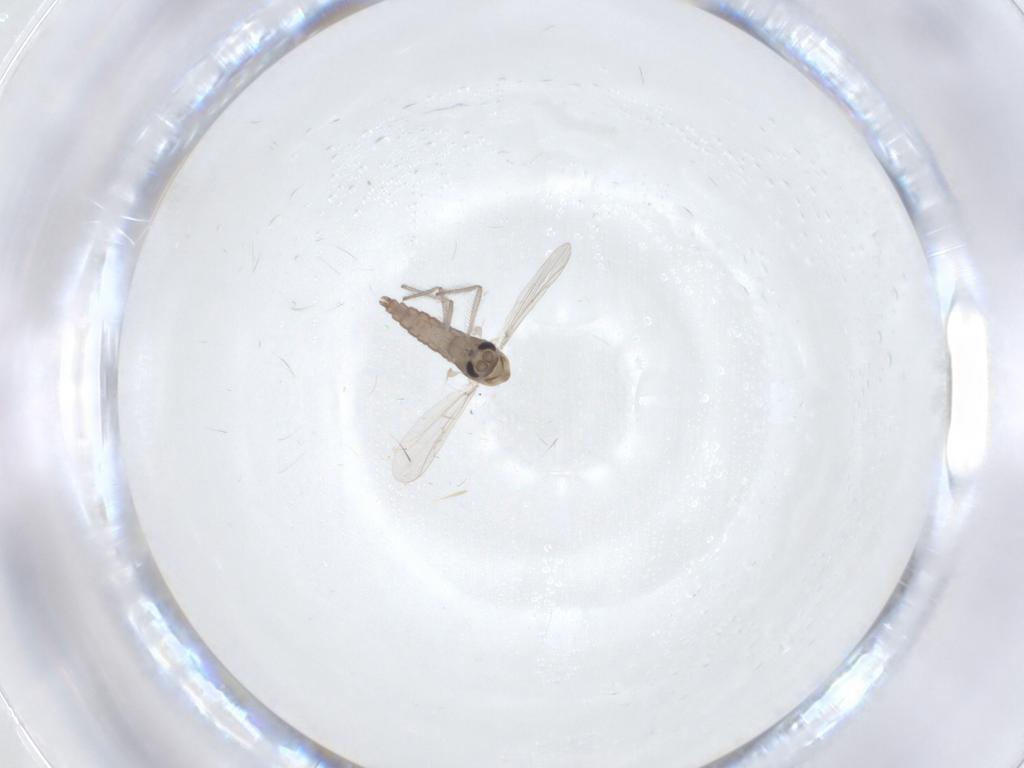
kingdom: Animalia
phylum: Arthropoda
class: Insecta
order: Diptera
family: Chironomidae
